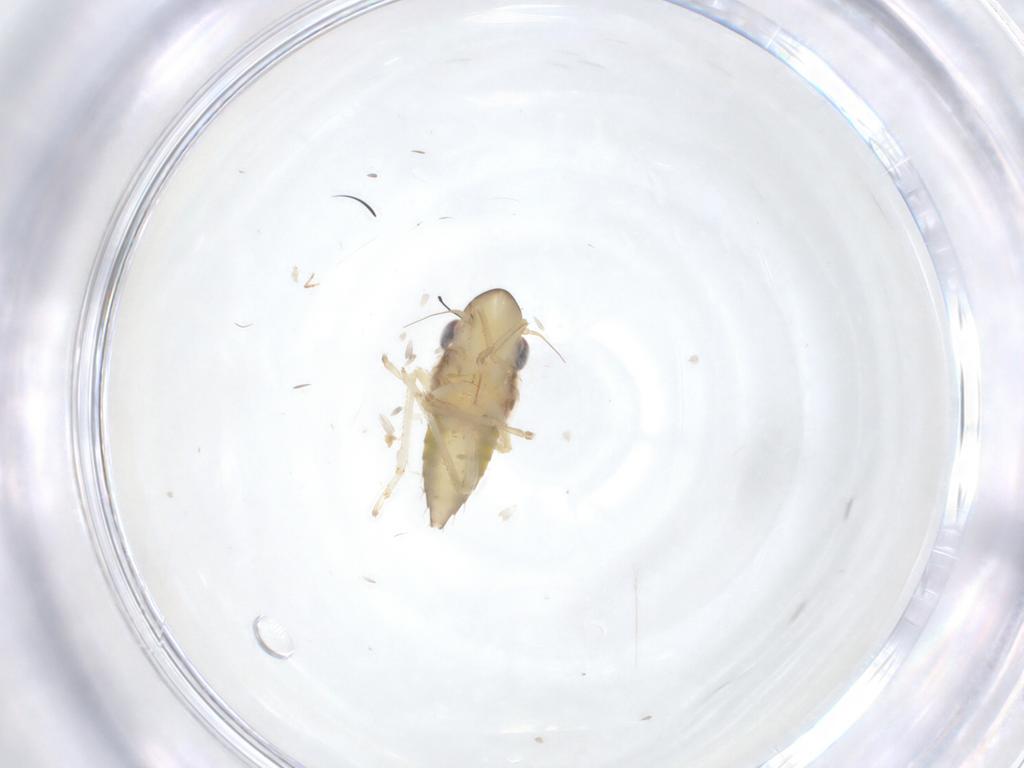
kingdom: Animalia
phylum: Arthropoda
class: Insecta
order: Hemiptera
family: Cicadellidae
